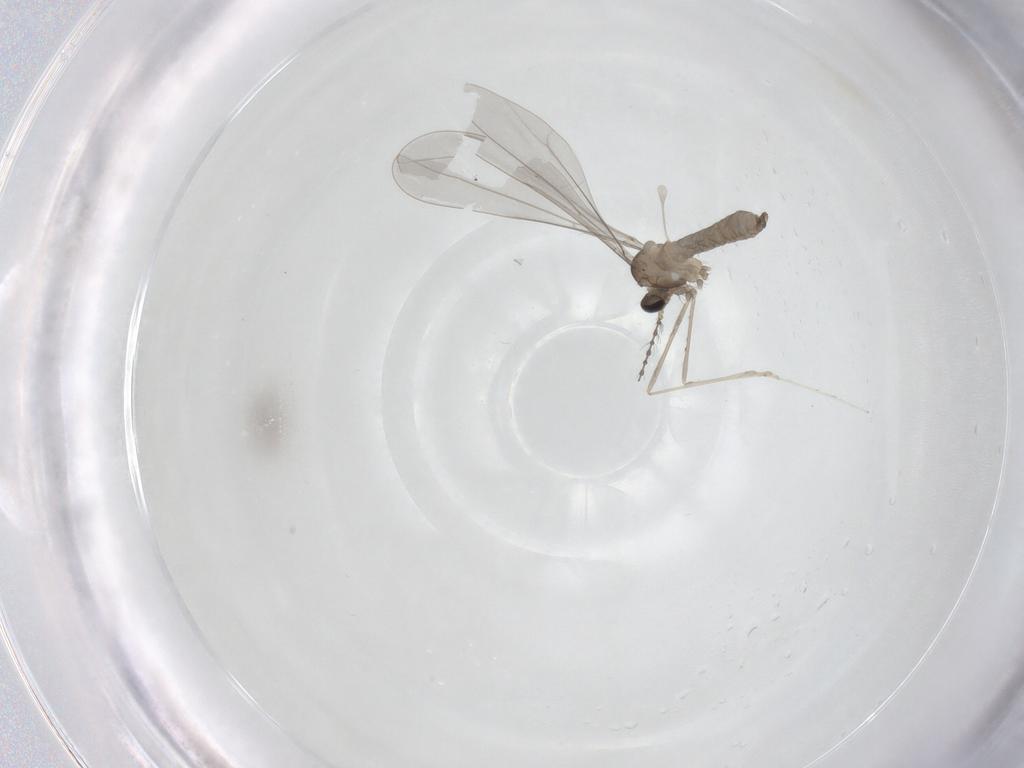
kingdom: Animalia
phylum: Arthropoda
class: Insecta
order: Diptera
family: Cecidomyiidae
